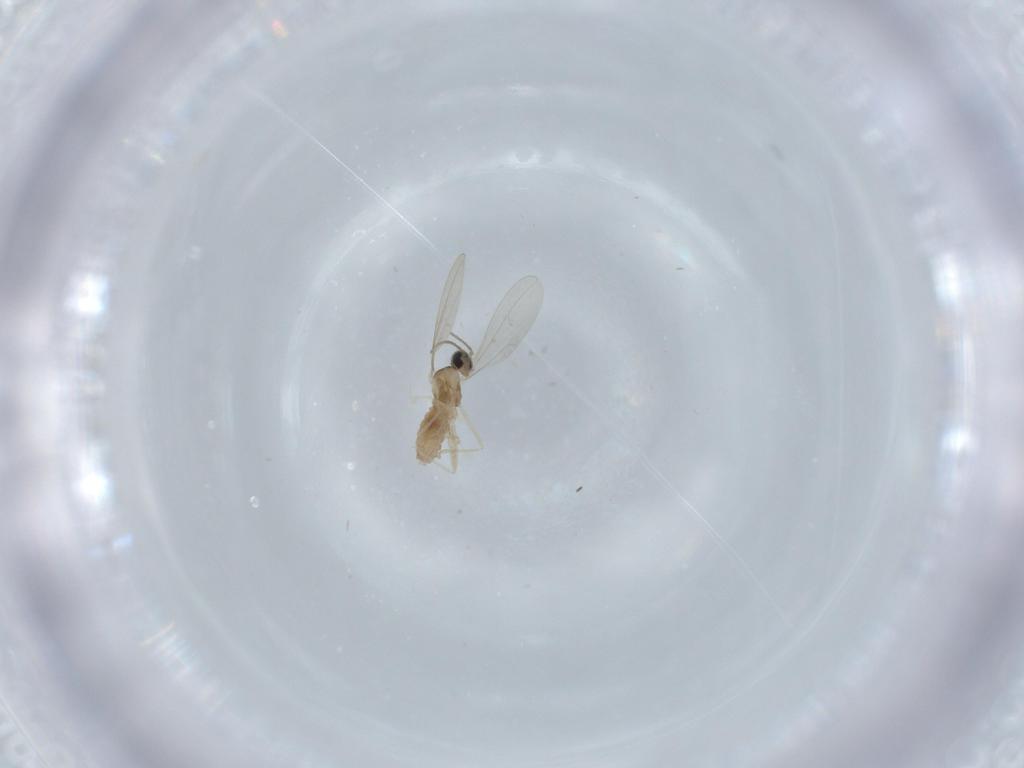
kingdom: Animalia
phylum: Arthropoda
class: Insecta
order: Diptera
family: Cecidomyiidae
